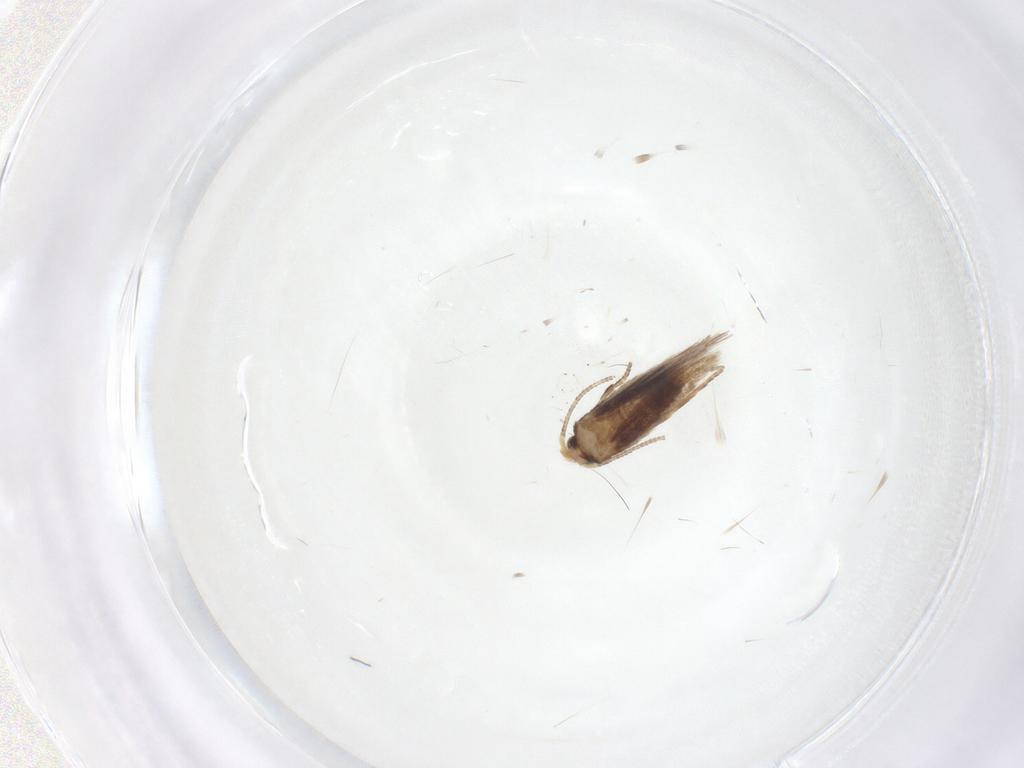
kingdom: Animalia
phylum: Arthropoda
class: Insecta
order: Lepidoptera
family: Nepticulidae
